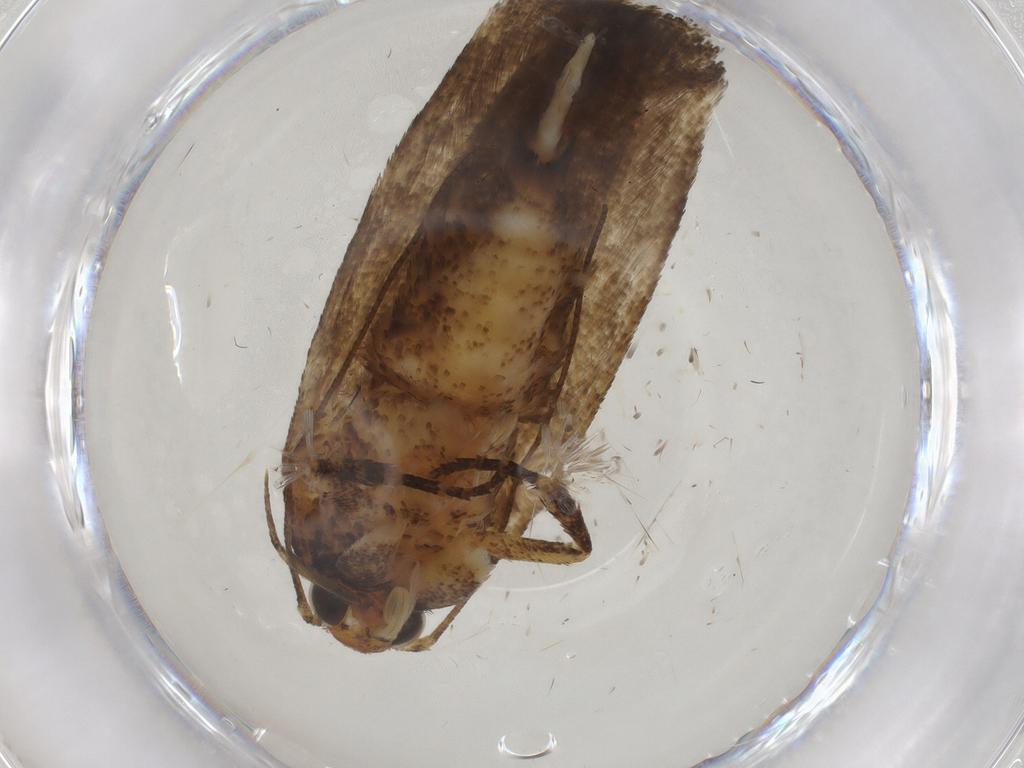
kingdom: Animalia
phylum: Arthropoda
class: Insecta
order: Lepidoptera
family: Gelechiidae
